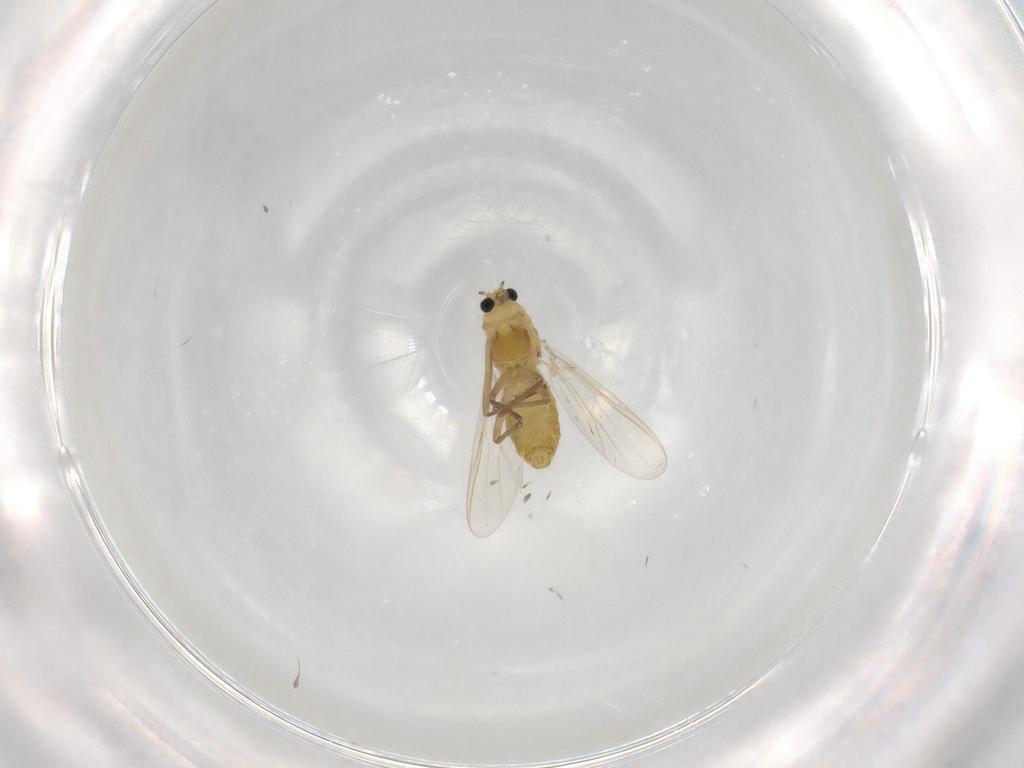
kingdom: Animalia
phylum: Arthropoda
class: Insecta
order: Diptera
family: Chironomidae
